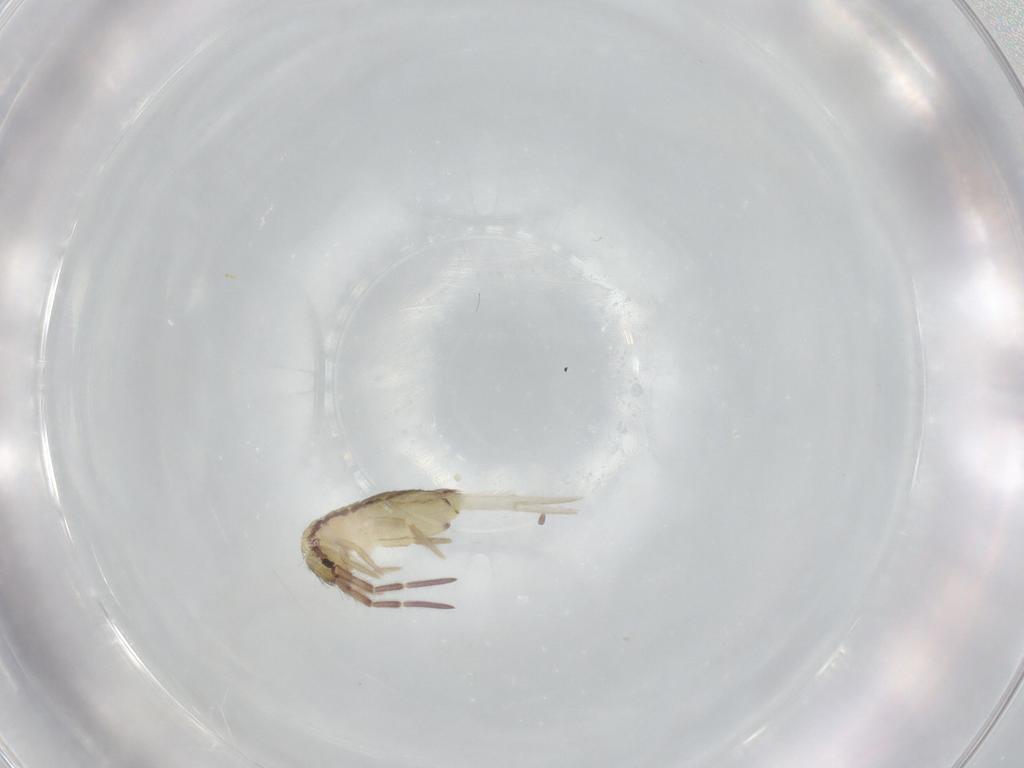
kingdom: Animalia
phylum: Arthropoda
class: Collembola
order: Entomobryomorpha
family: Entomobryidae
